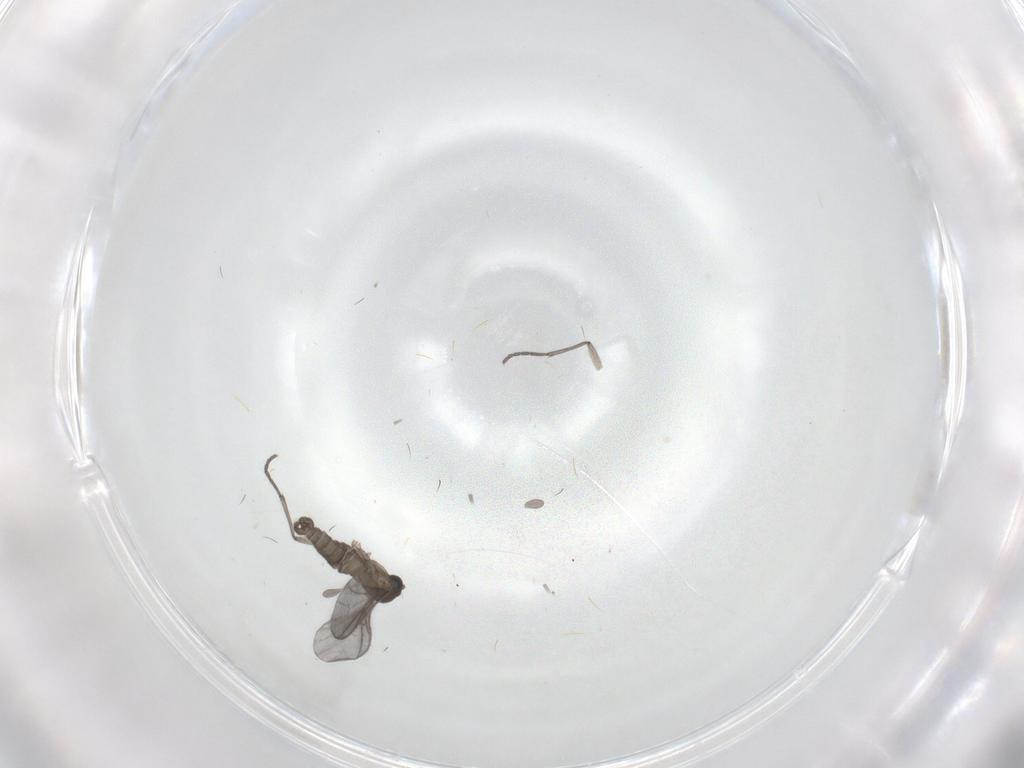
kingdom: Animalia
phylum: Arthropoda
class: Insecta
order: Diptera
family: Sciaridae
